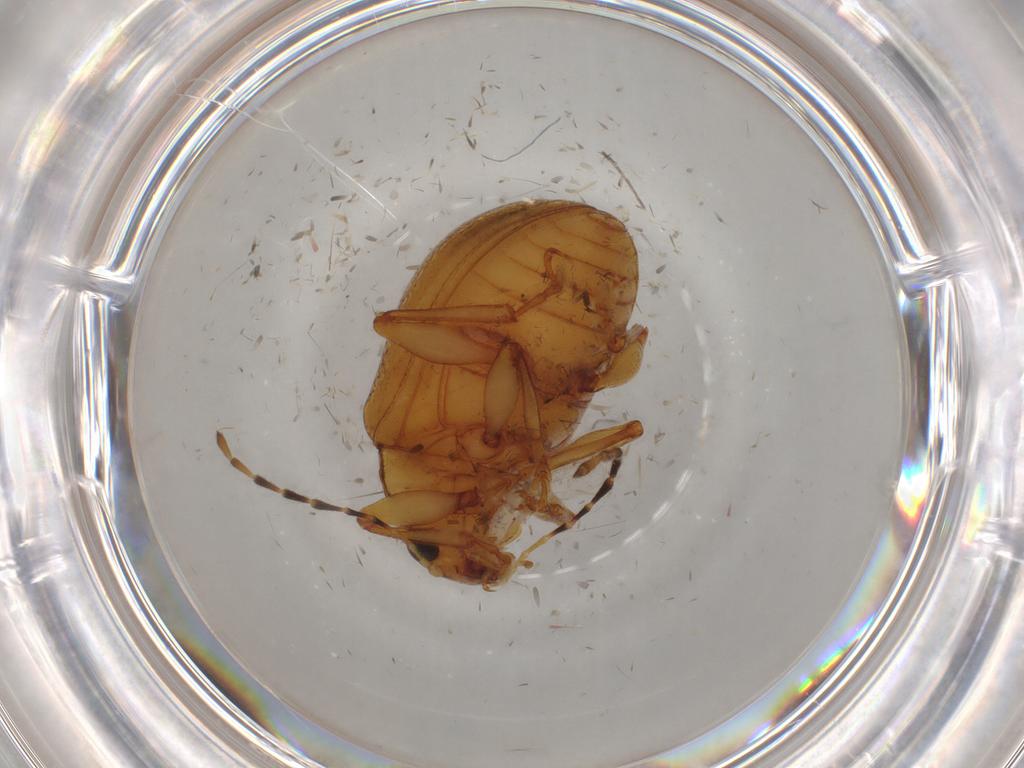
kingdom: Animalia
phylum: Arthropoda
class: Insecta
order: Coleoptera
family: Chrysomelidae
